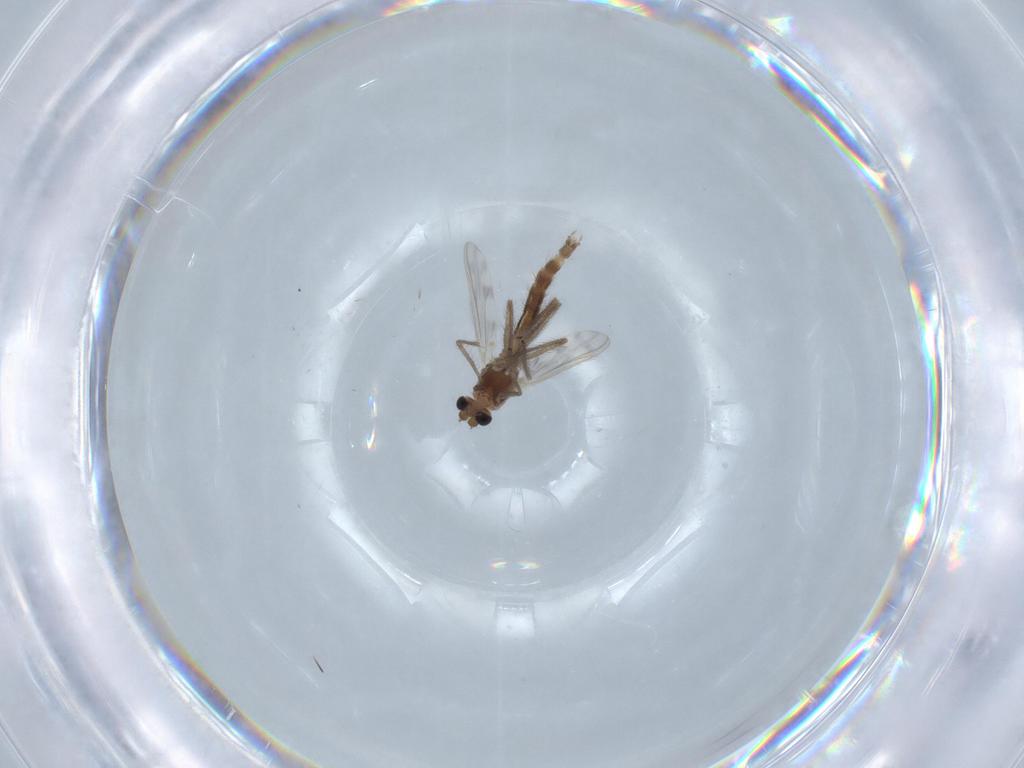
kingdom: Animalia
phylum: Arthropoda
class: Insecta
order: Diptera
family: Chironomidae
